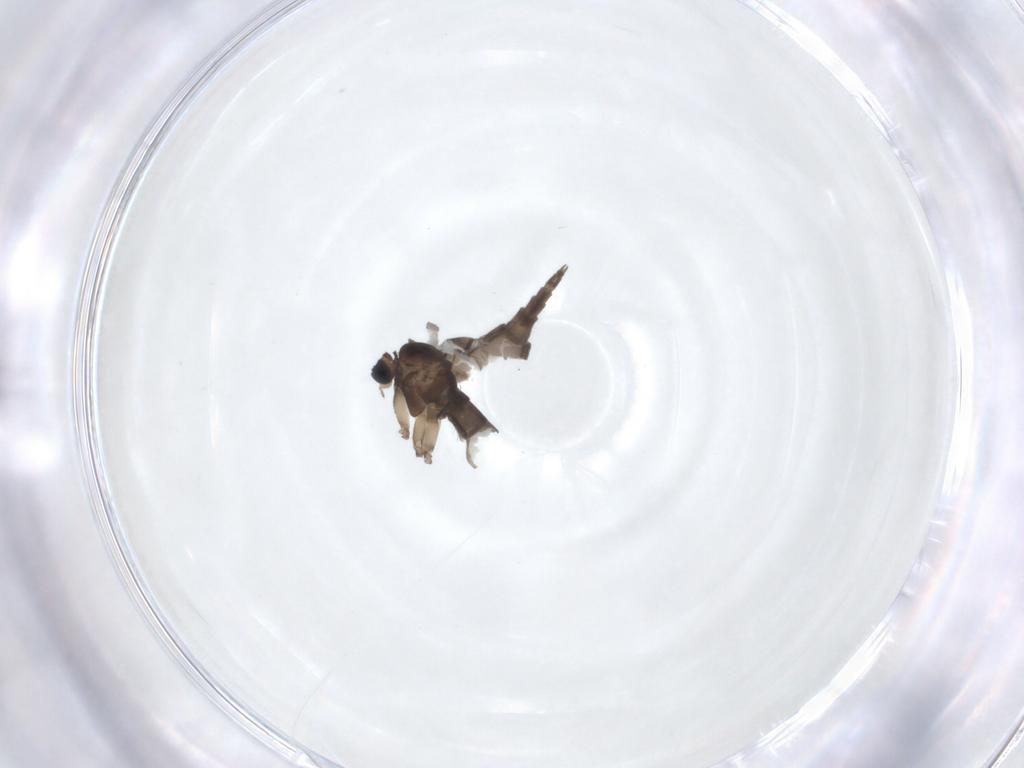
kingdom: Animalia
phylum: Arthropoda
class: Insecta
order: Diptera
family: Sciaridae
